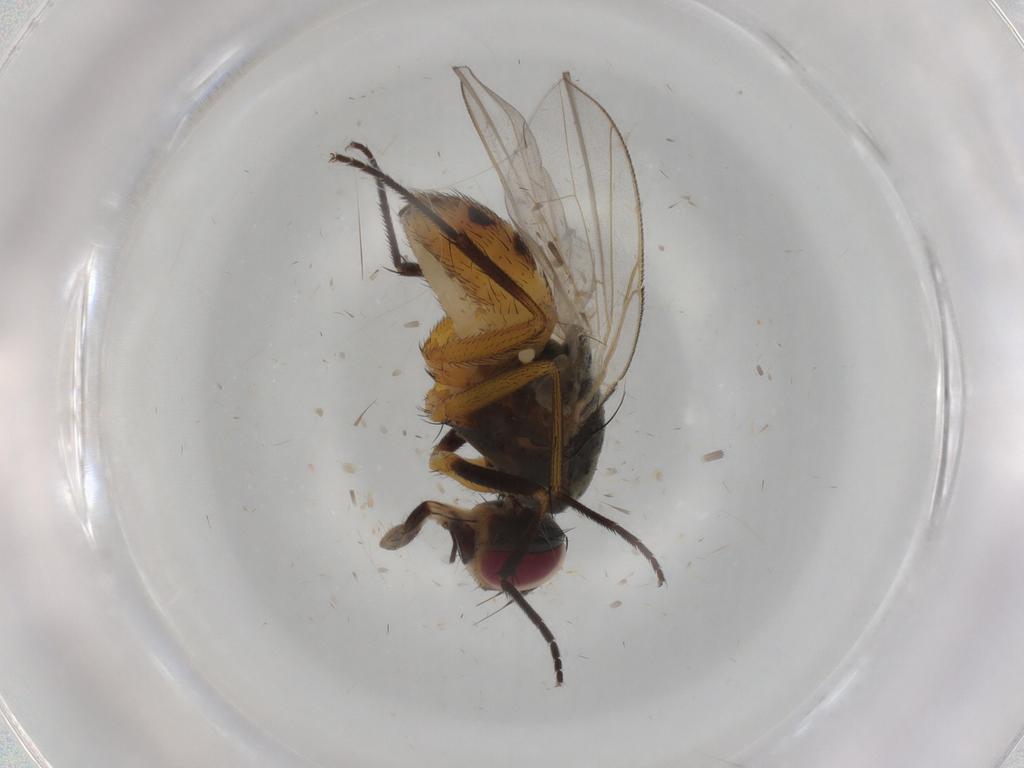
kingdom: Animalia
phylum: Arthropoda
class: Insecta
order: Diptera
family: Muscidae
